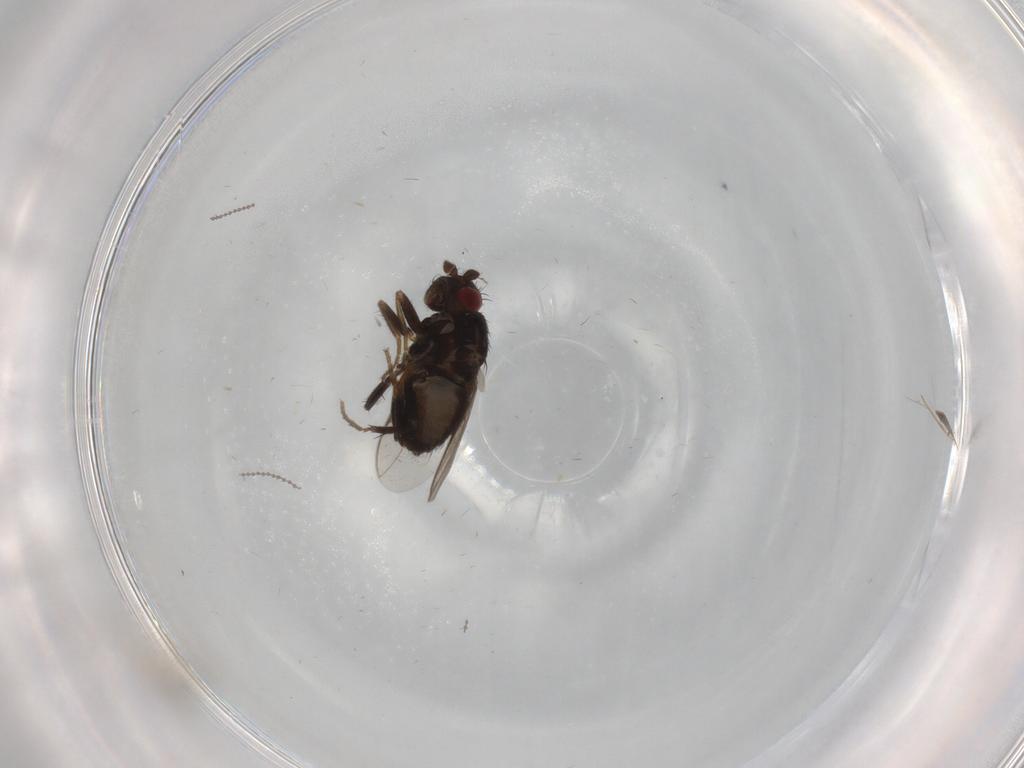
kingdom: Animalia
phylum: Arthropoda
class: Insecta
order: Diptera
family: Sphaeroceridae
